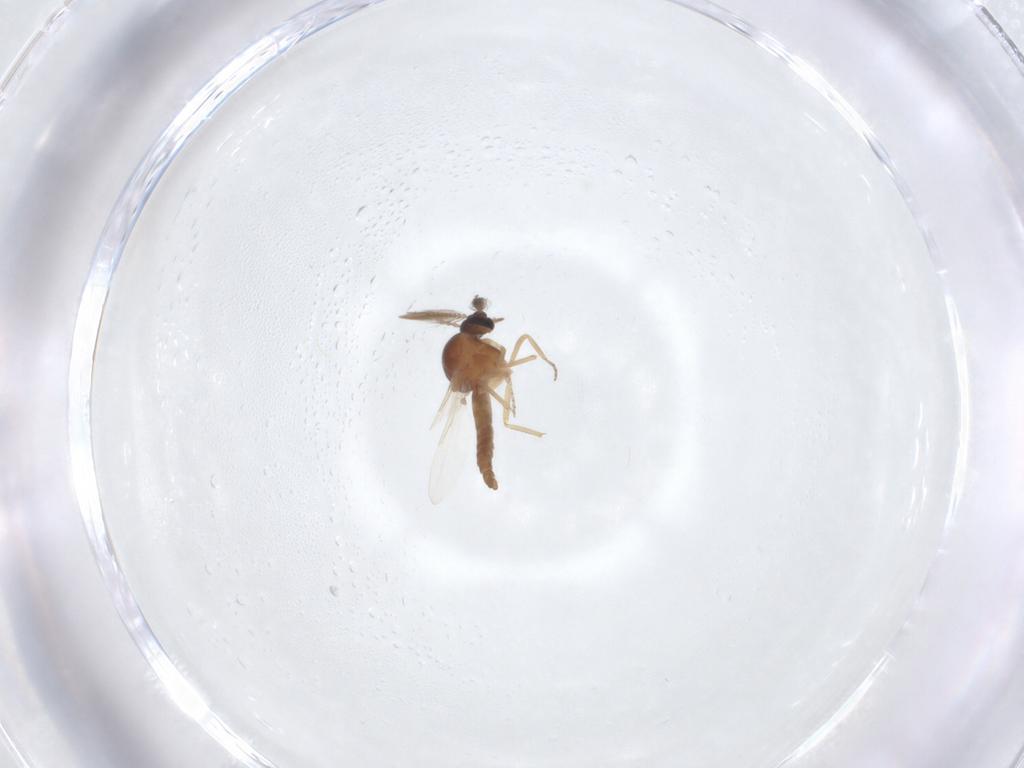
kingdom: Animalia
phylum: Arthropoda
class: Insecta
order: Diptera
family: Ceratopogonidae
